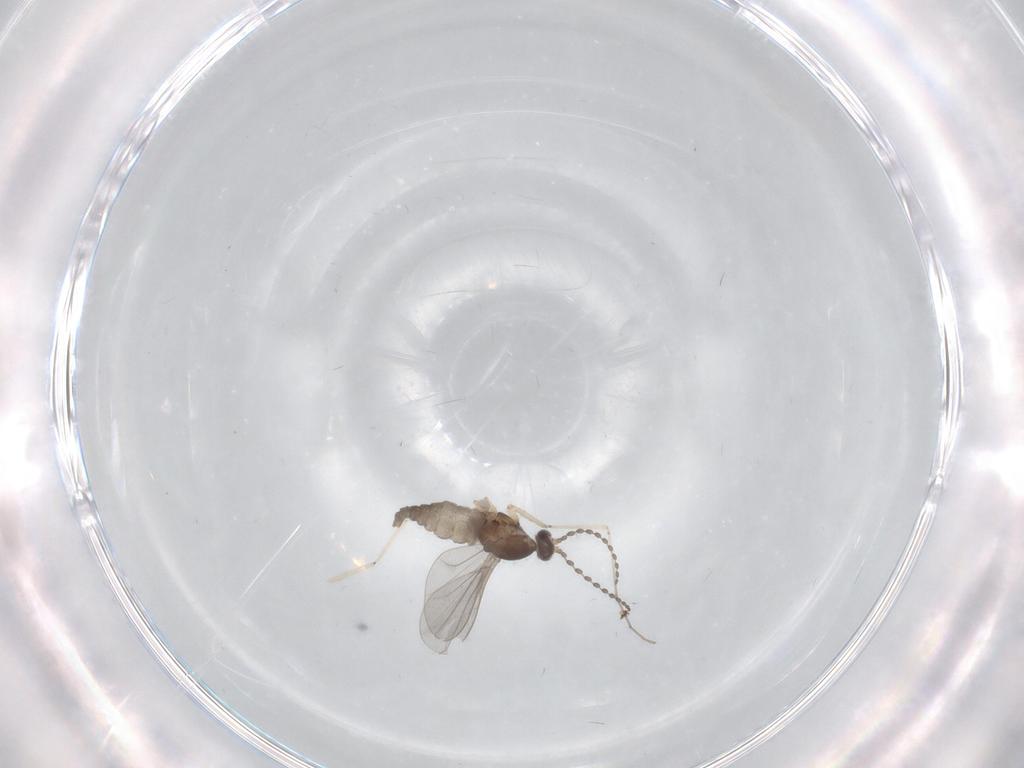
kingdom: Animalia
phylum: Arthropoda
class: Insecta
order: Diptera
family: Cecidomyiidae
